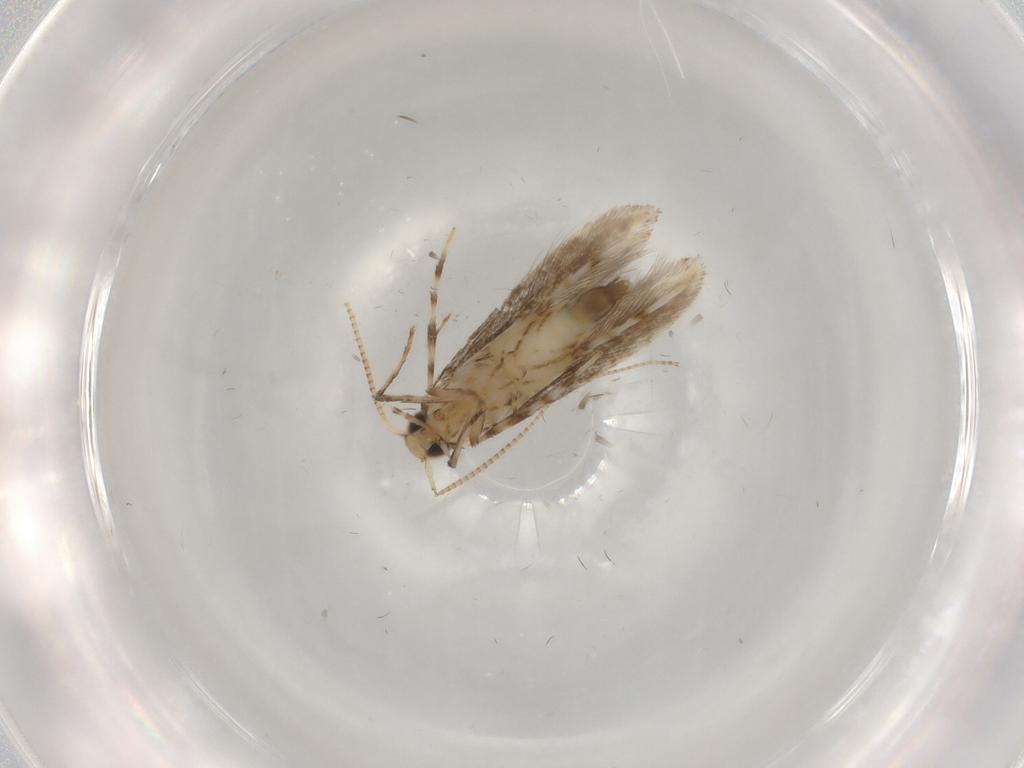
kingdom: Animalia
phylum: Arthropoda
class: Insecta
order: Lepidoptera
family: Gracillariidae
